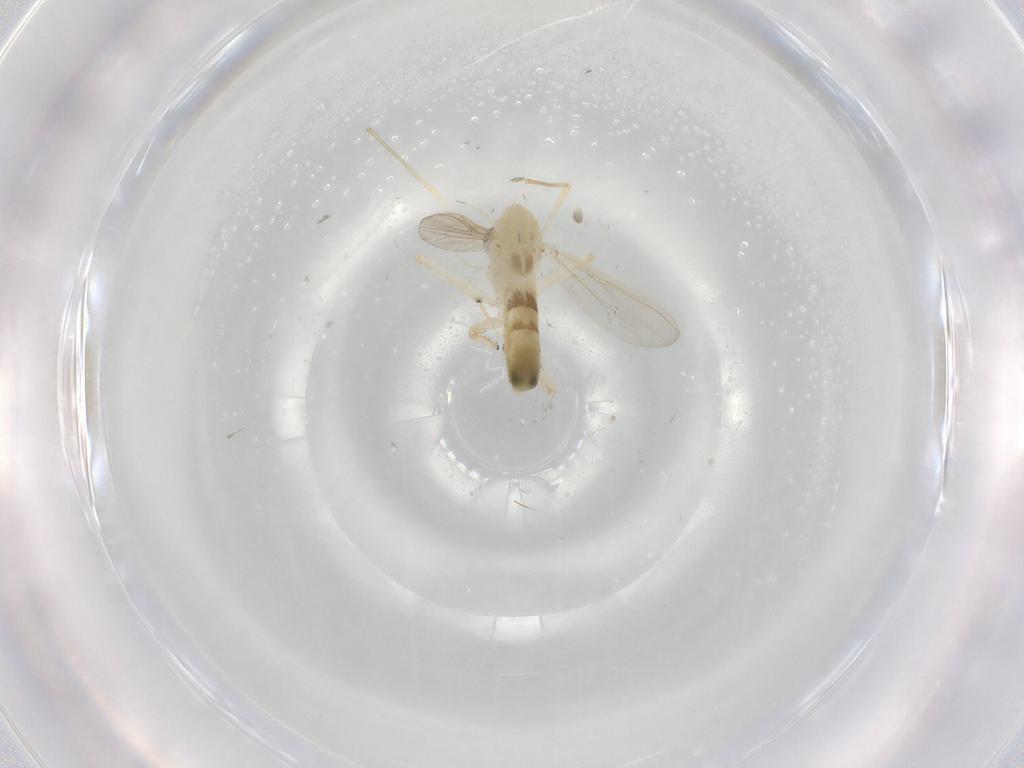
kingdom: Animalia
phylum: Arthropoda
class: Insecta
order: Diptera
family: Chironomidae
